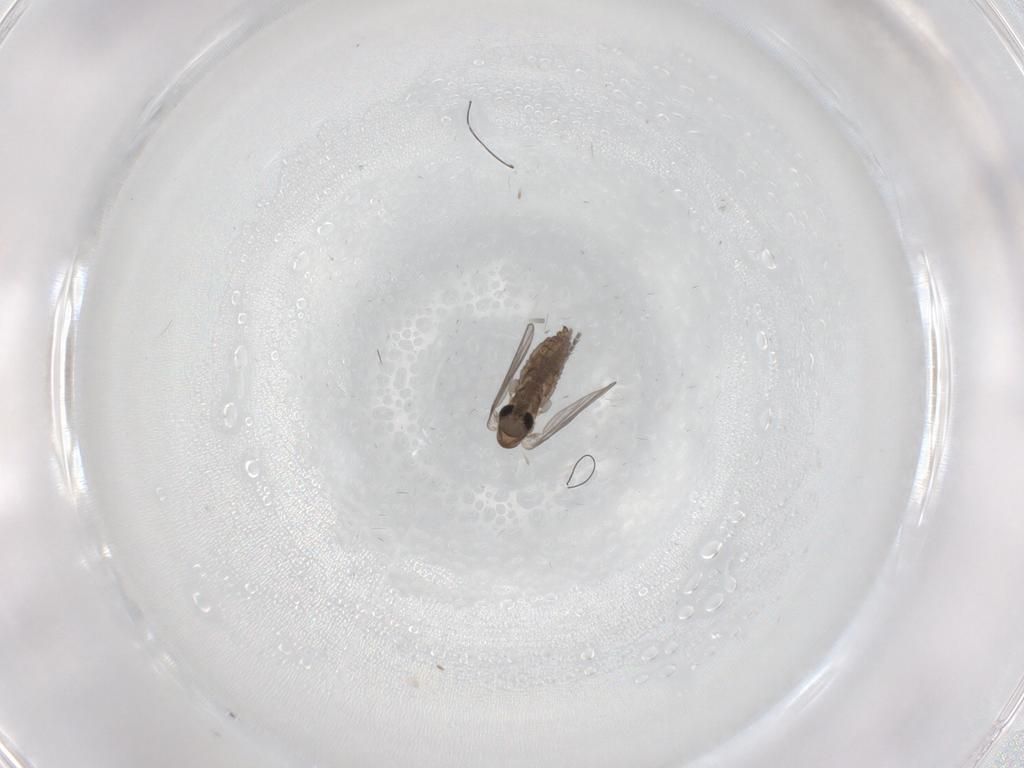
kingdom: Animalia
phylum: Arthropoda
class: Insecta
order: Diptera
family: Chironomidae
